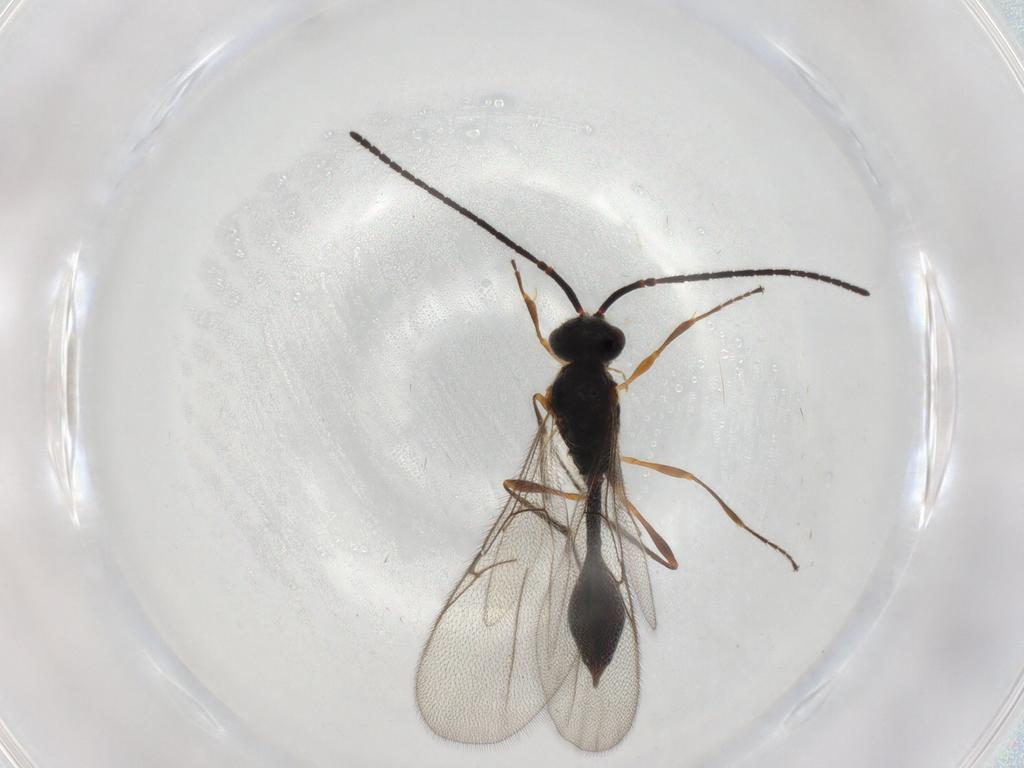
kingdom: Animalia
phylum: Arthropoda
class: Insecta
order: Hymenoptera
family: Diapriidae
